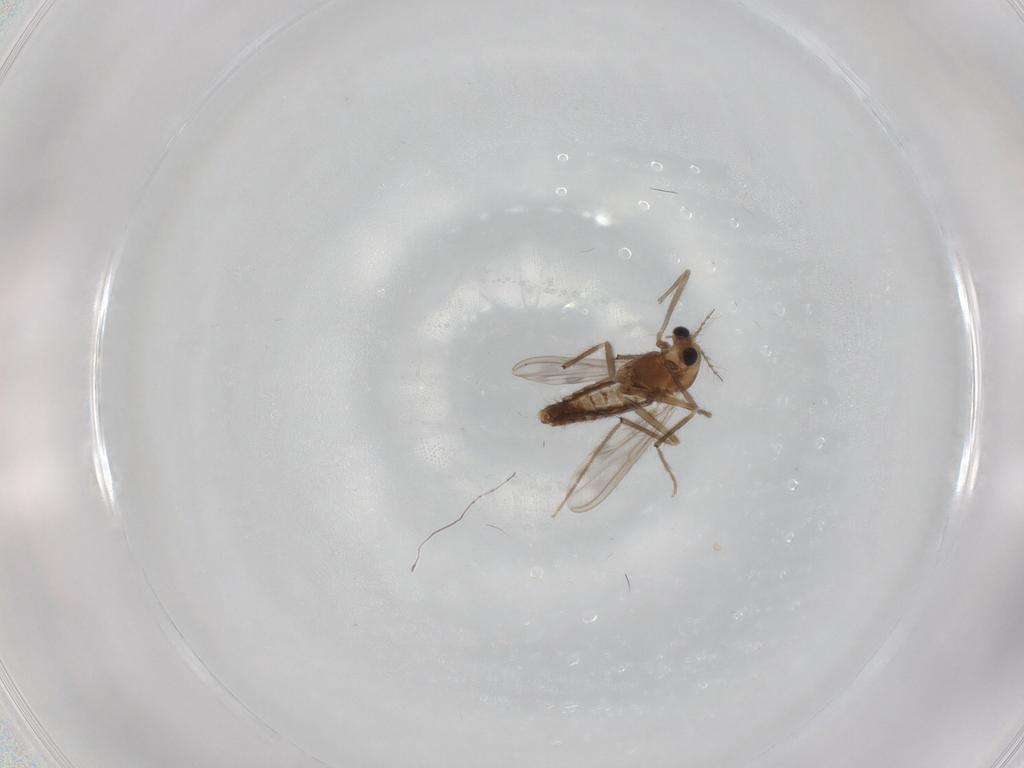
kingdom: Animalia
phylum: Arthropoda
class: Insecta
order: Diptera
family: Chironomidae
